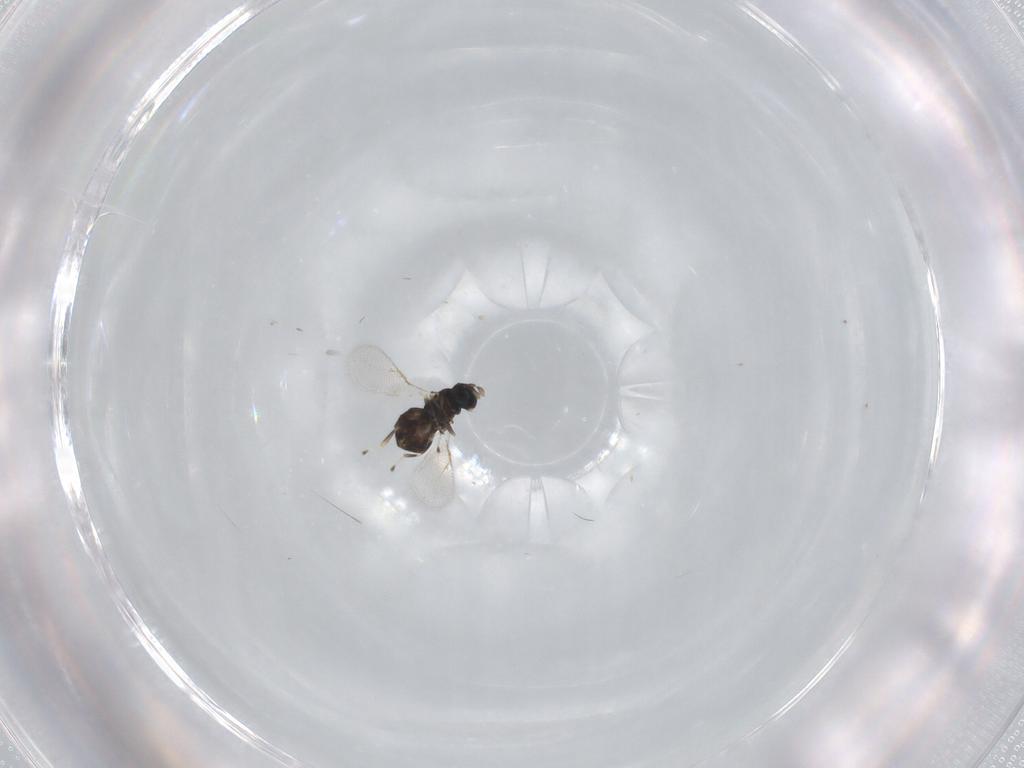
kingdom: Animalia
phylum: Arthropoda
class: Insecta
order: Hymenoptera
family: Eulophidae
